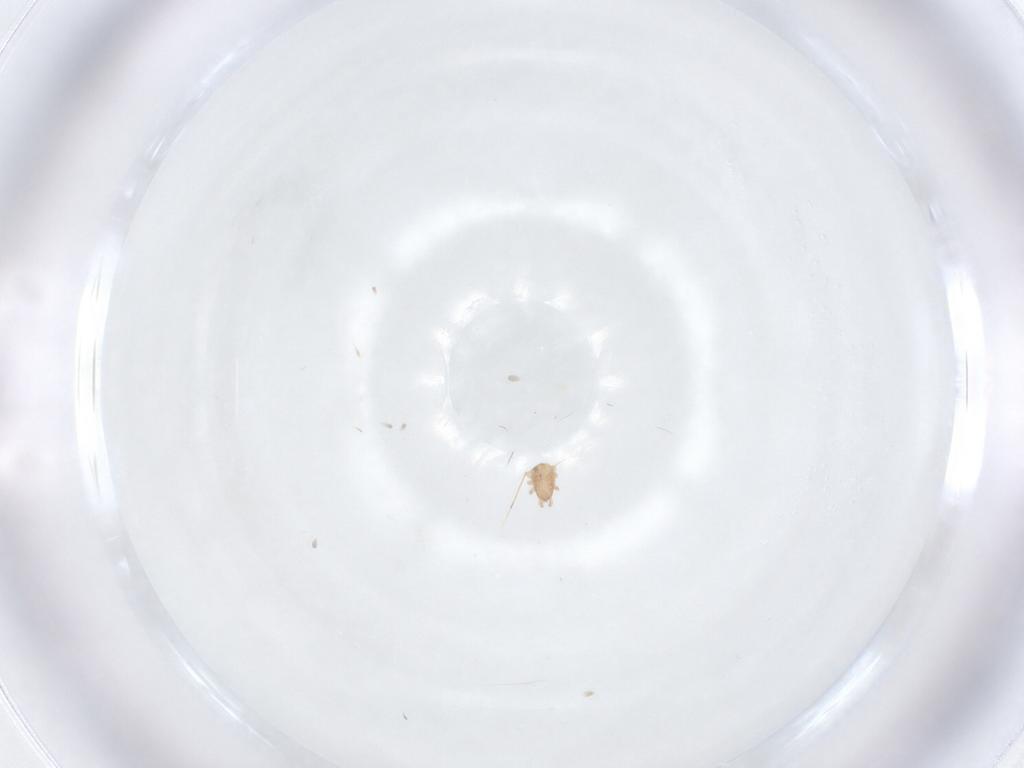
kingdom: Animalia
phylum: Arthropoda
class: Arachnida
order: Mesostigmata
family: Ascidae
